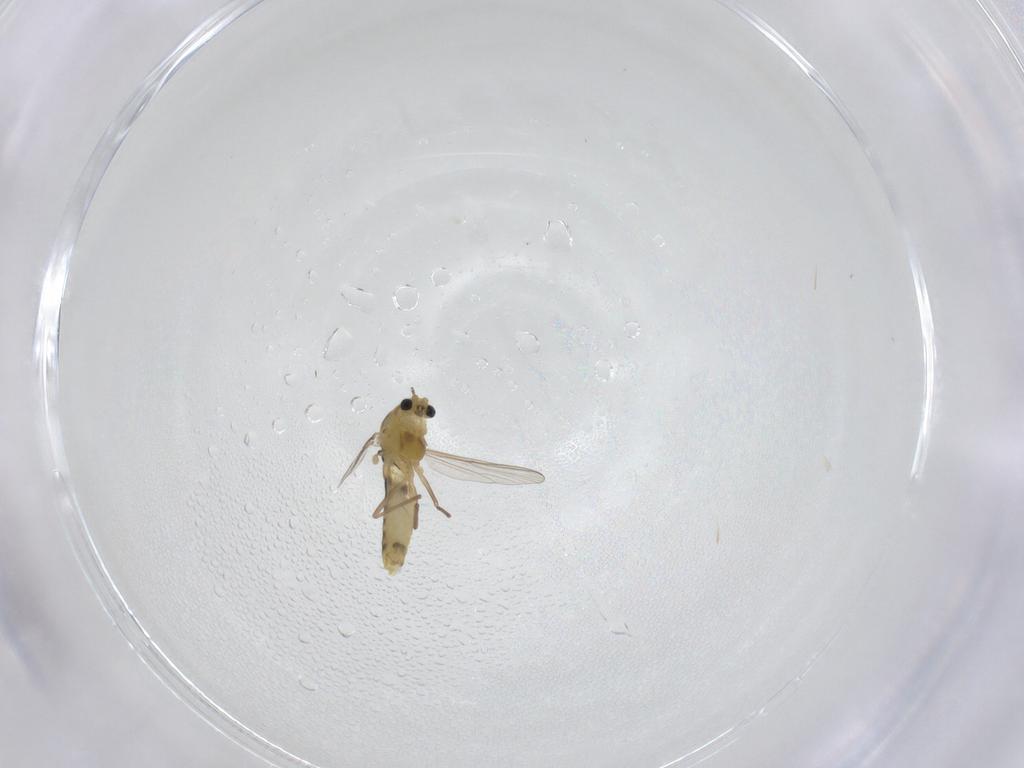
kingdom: Animalia
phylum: Arthropoda
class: Insecta
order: Diptera
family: Chironomidae
